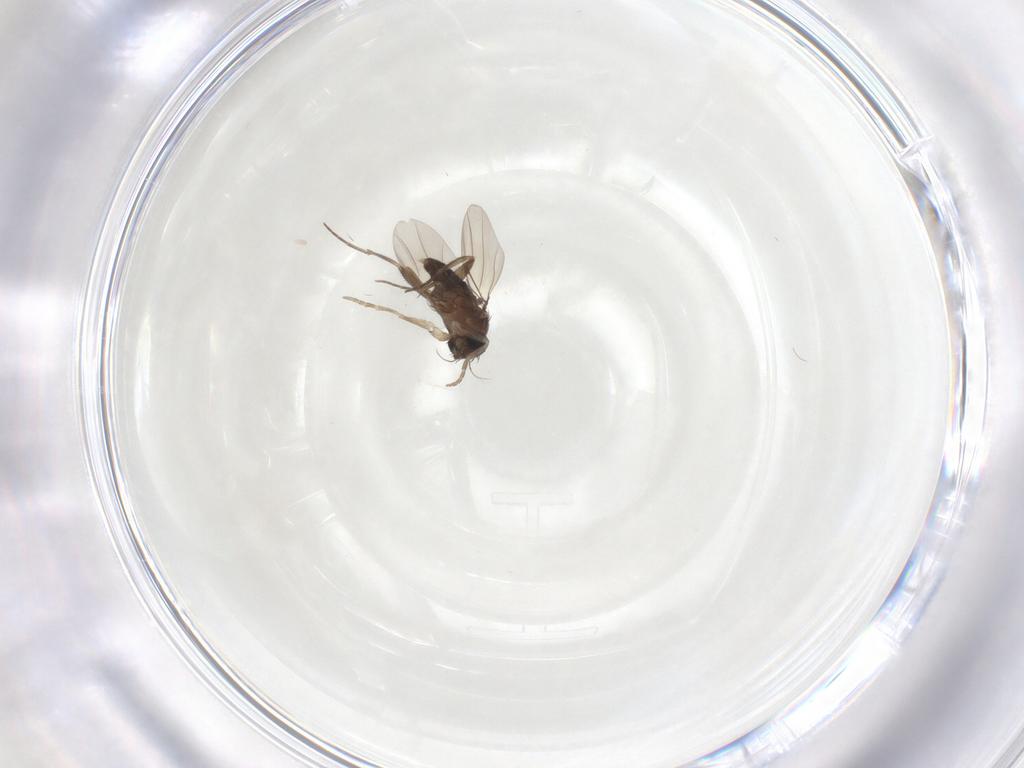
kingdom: Animalia
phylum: Arthropoda
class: Insecta
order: Diptera
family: Phoridae
